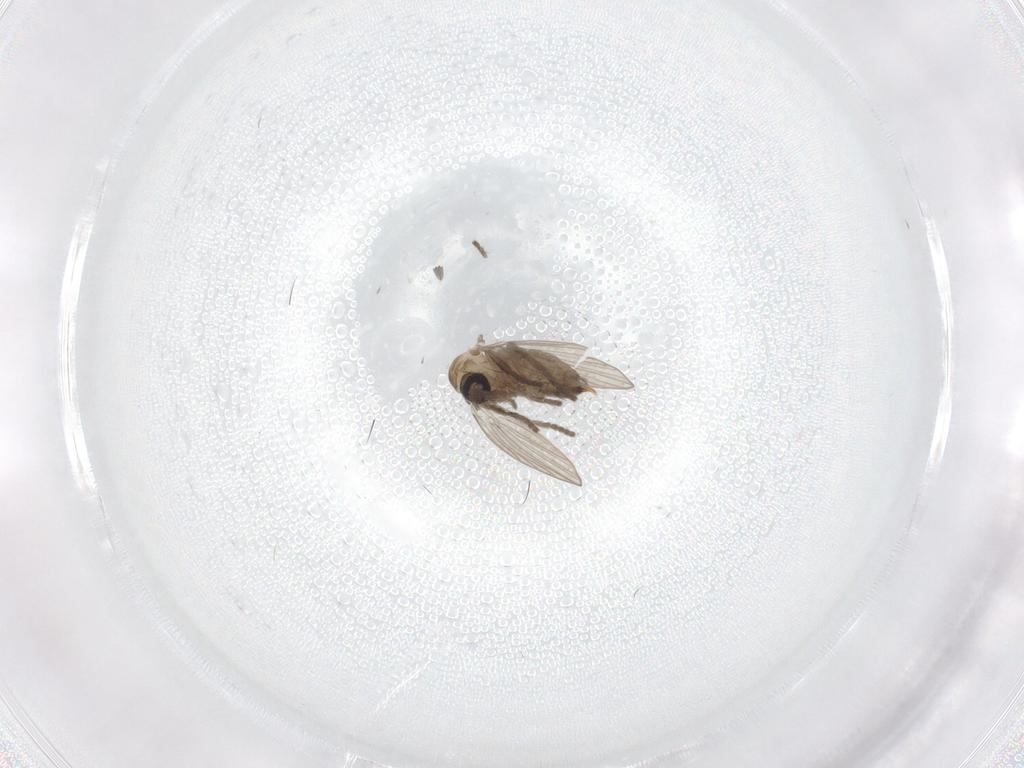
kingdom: Animalia
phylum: Arthropoda
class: Insecta
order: Diptera
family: Psychodidae
